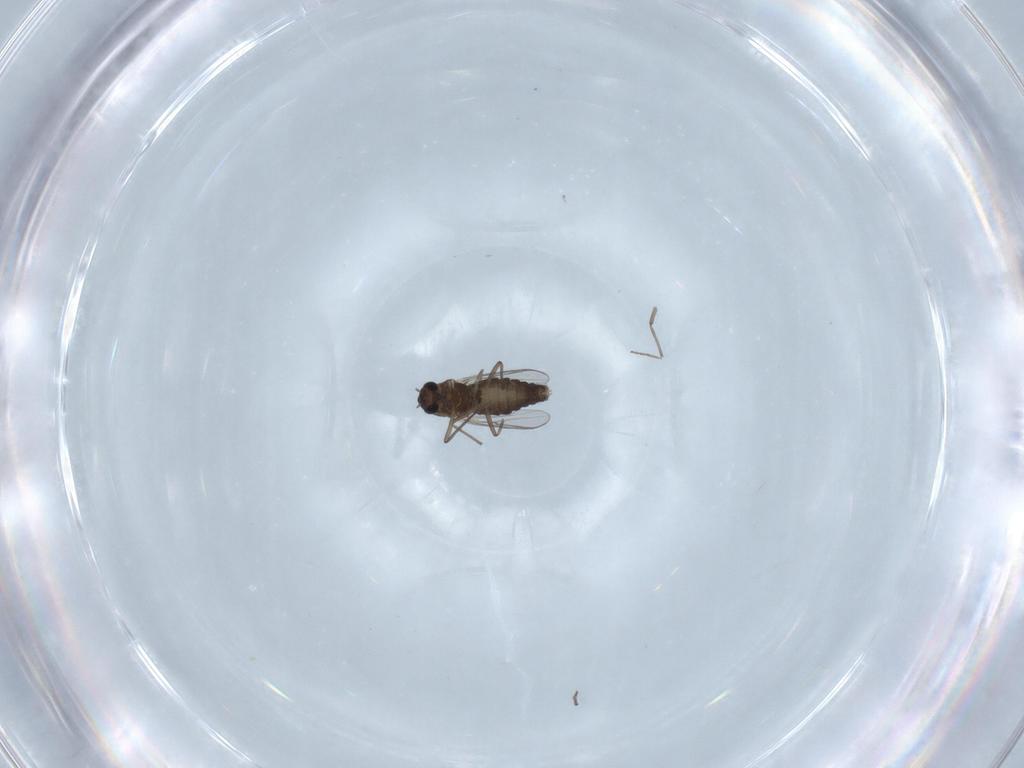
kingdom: Animalia
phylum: Arthropoda
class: Insecta
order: Diptera
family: Chironomidae
